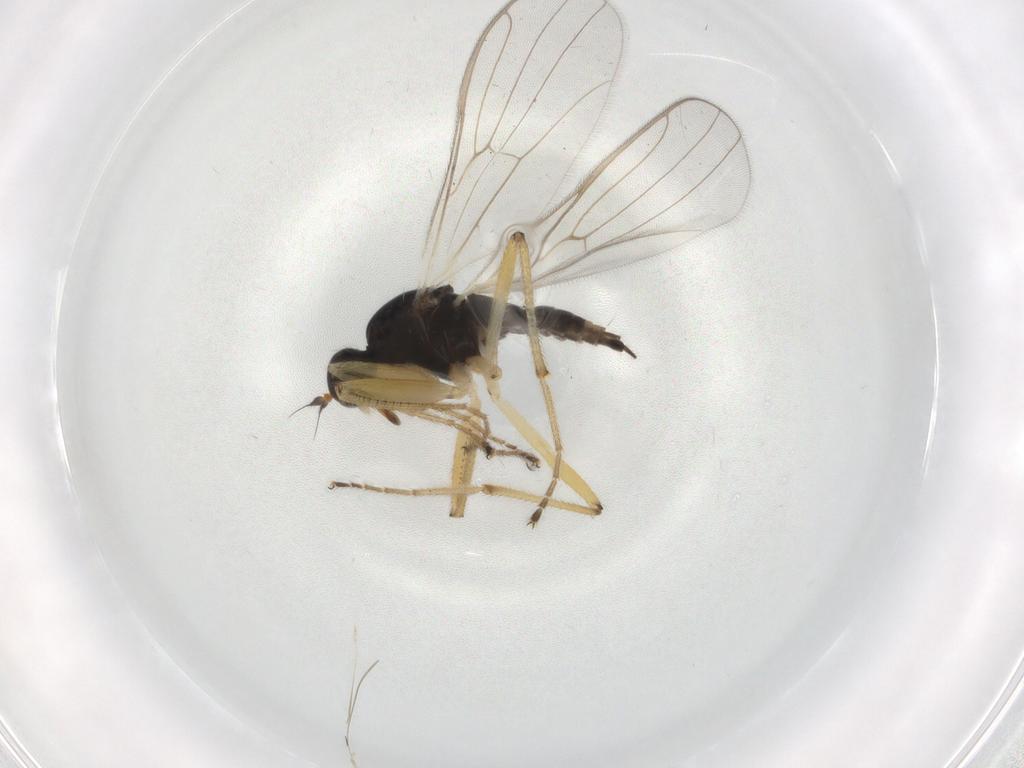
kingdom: Animalia
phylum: Arthropoda
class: Insecta
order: Diptera
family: Hybotidae
